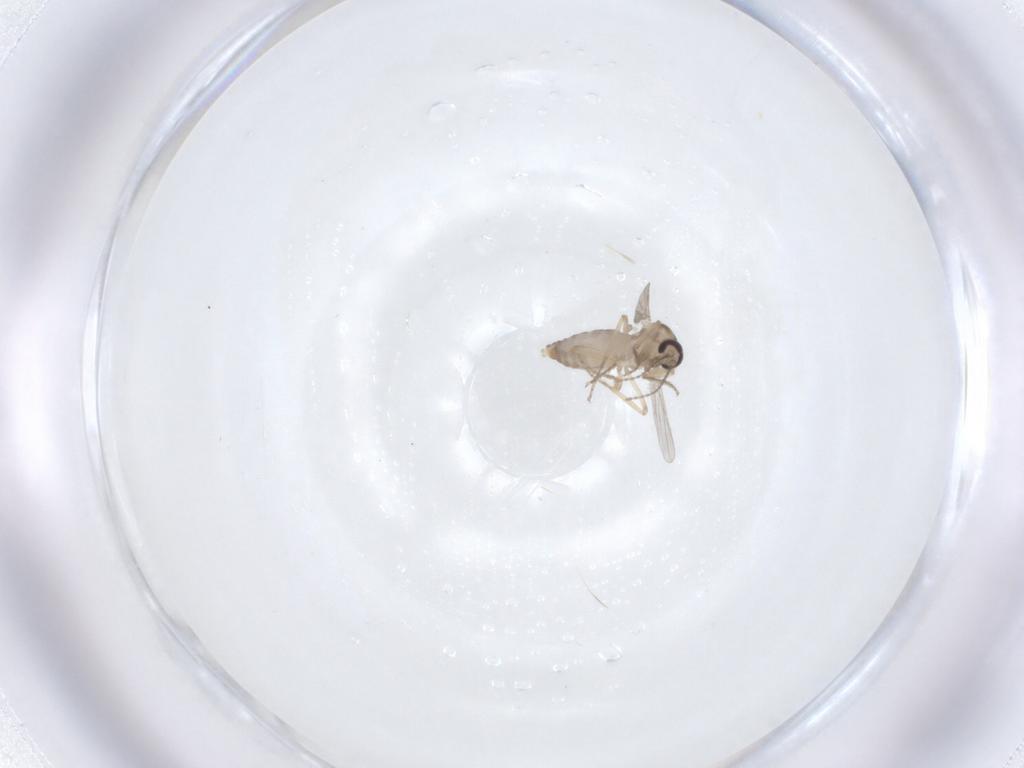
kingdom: Animalia
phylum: Arthropoda
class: Insecta
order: Diptera
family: Ceratopogonidae
